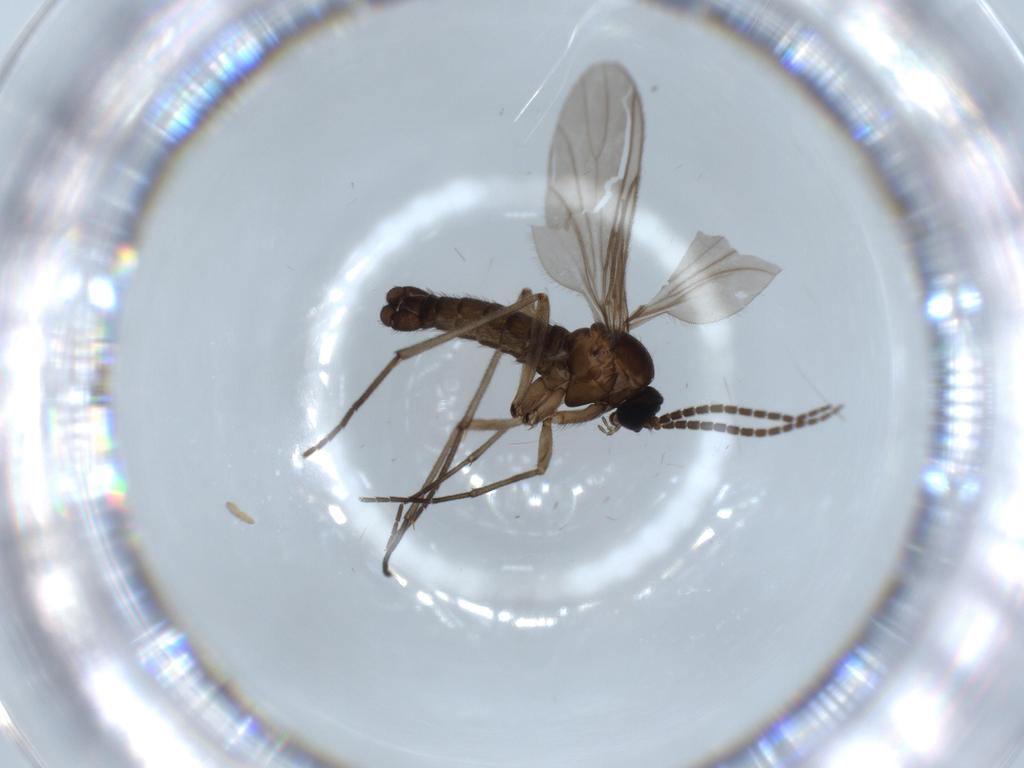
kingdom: Animalia
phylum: Arthropoda
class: Insecta
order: Diptera
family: Sciaridae
